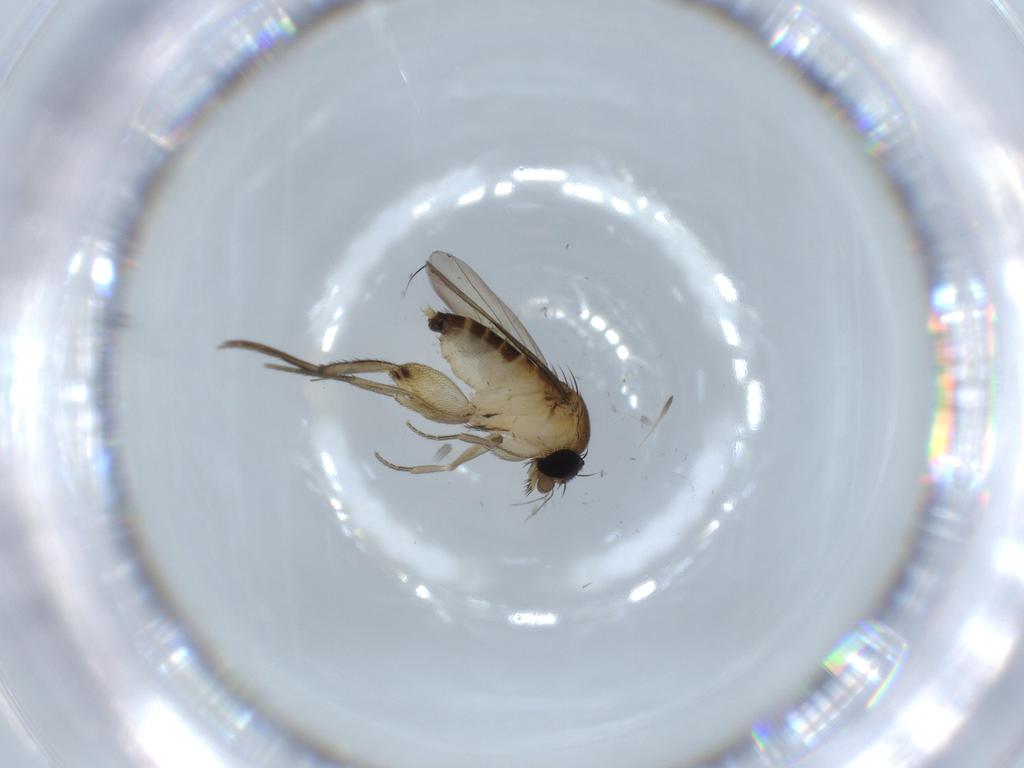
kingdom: Animalia
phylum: Arthropoda
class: Insecta
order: Diptera
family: Phoridae
